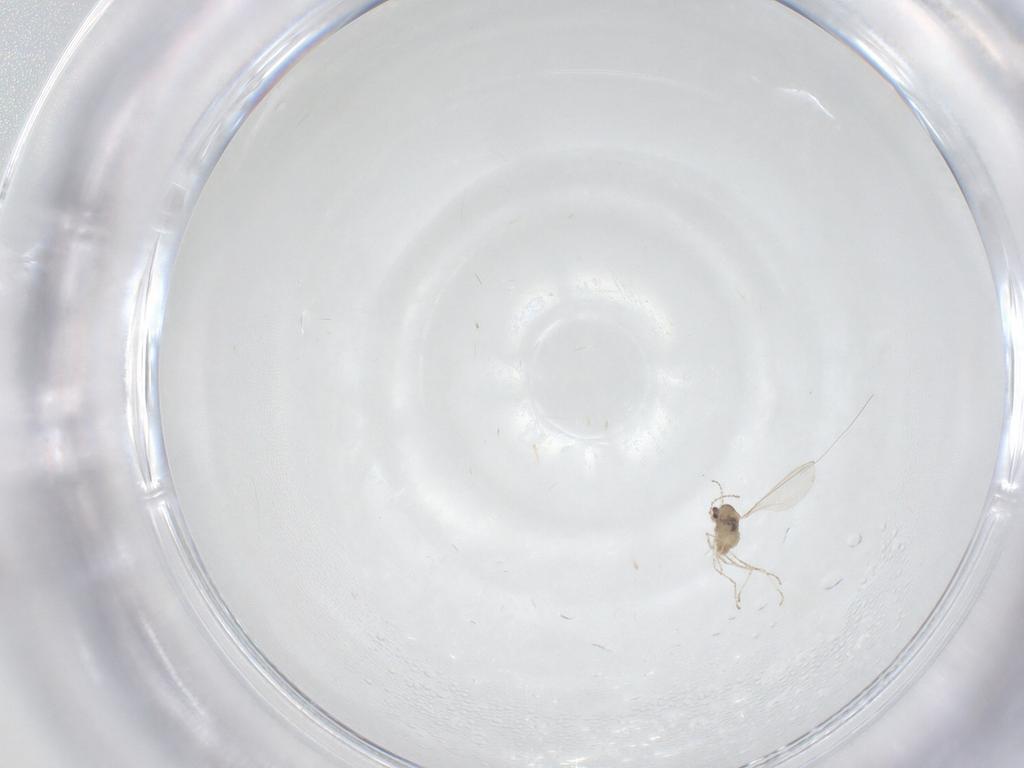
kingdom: Animalia
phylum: Arthropoda
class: Insecta
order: Diptera
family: Cecidomyiidae
